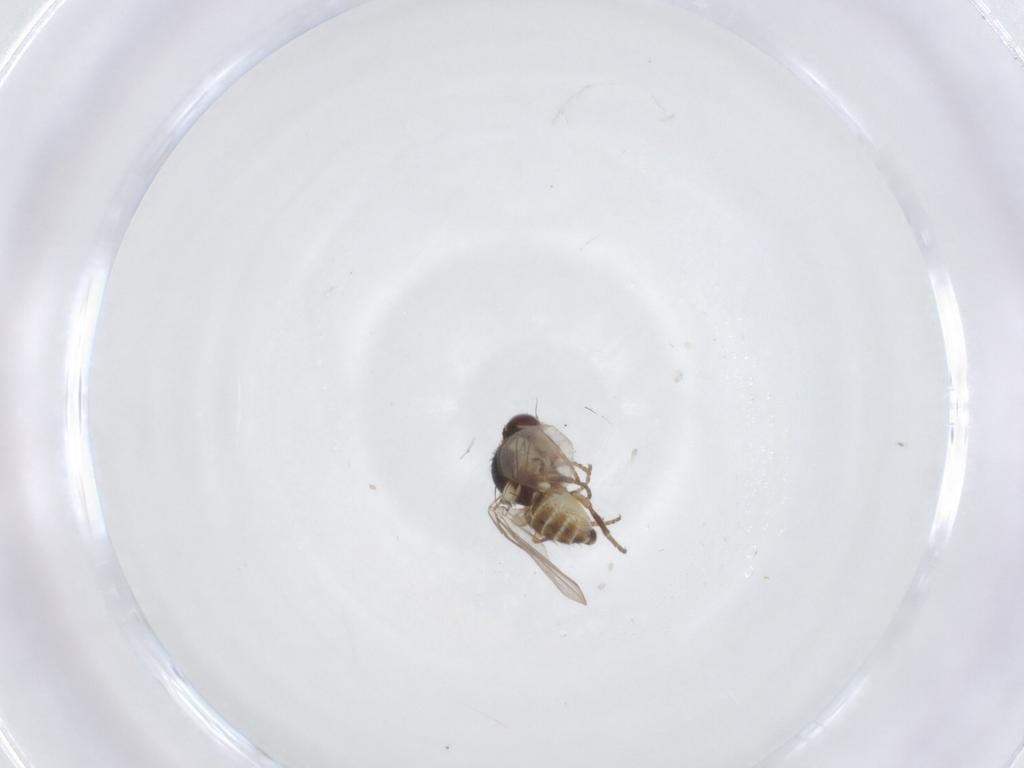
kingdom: Animalia
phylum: Arthropoda
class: Insecta
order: Diptera
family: Agromyzidae
